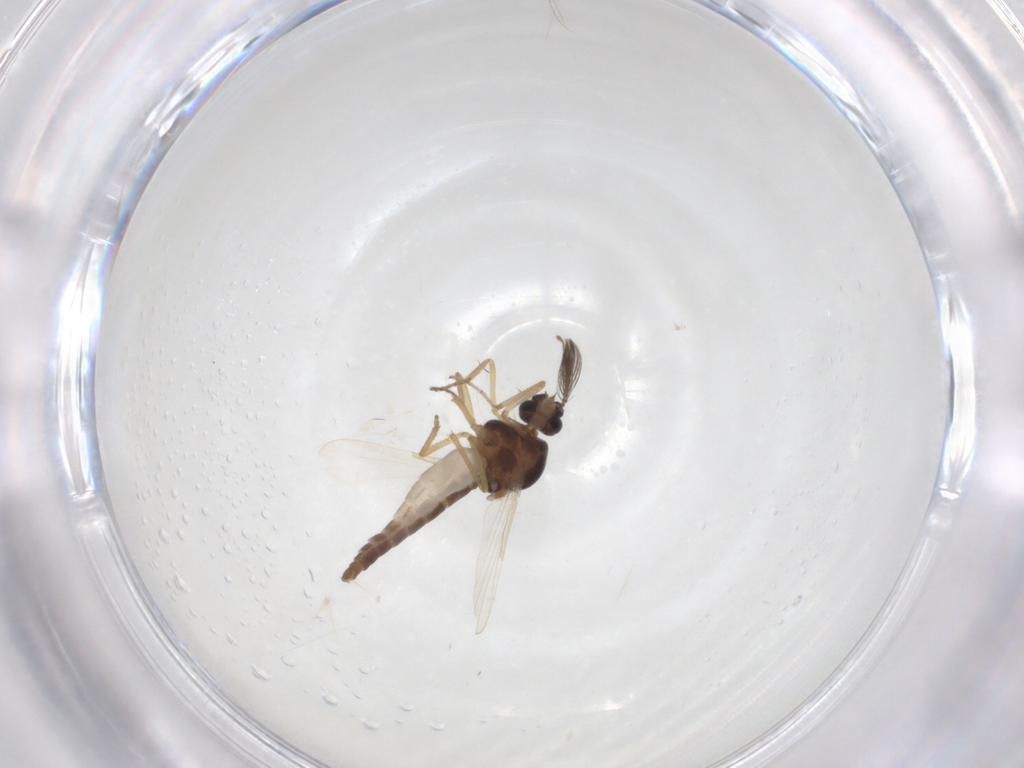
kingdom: Animalia
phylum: Arthropoda
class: Insecta
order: Diptera
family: Ceratopogonidae
